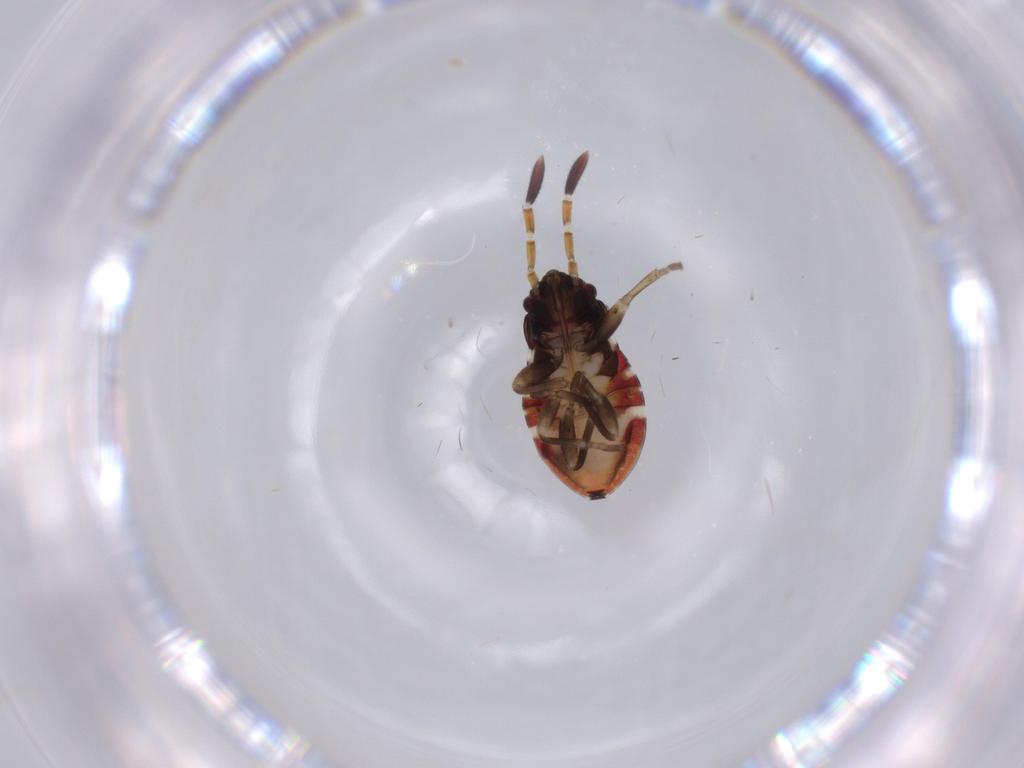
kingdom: Animalia
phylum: Arthropoda
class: Insecta
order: Hemiptera
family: Rhyparochromidae
